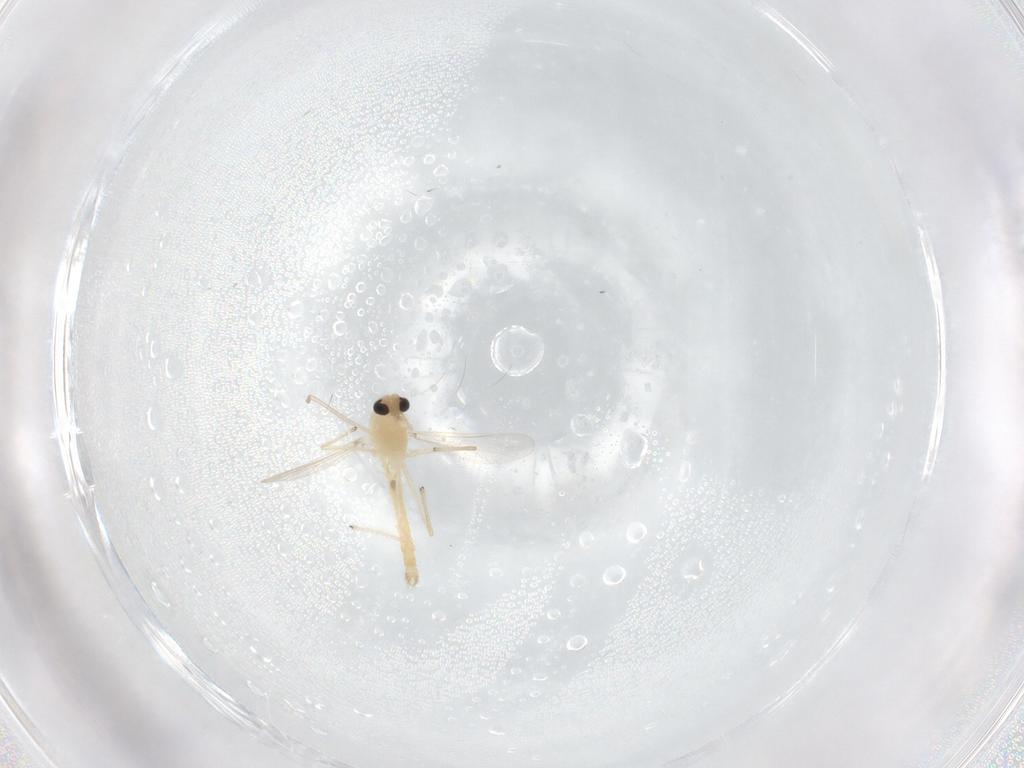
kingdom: Animalia
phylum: Arthropoda
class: Insecta
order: Diptera
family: Chironomidae
